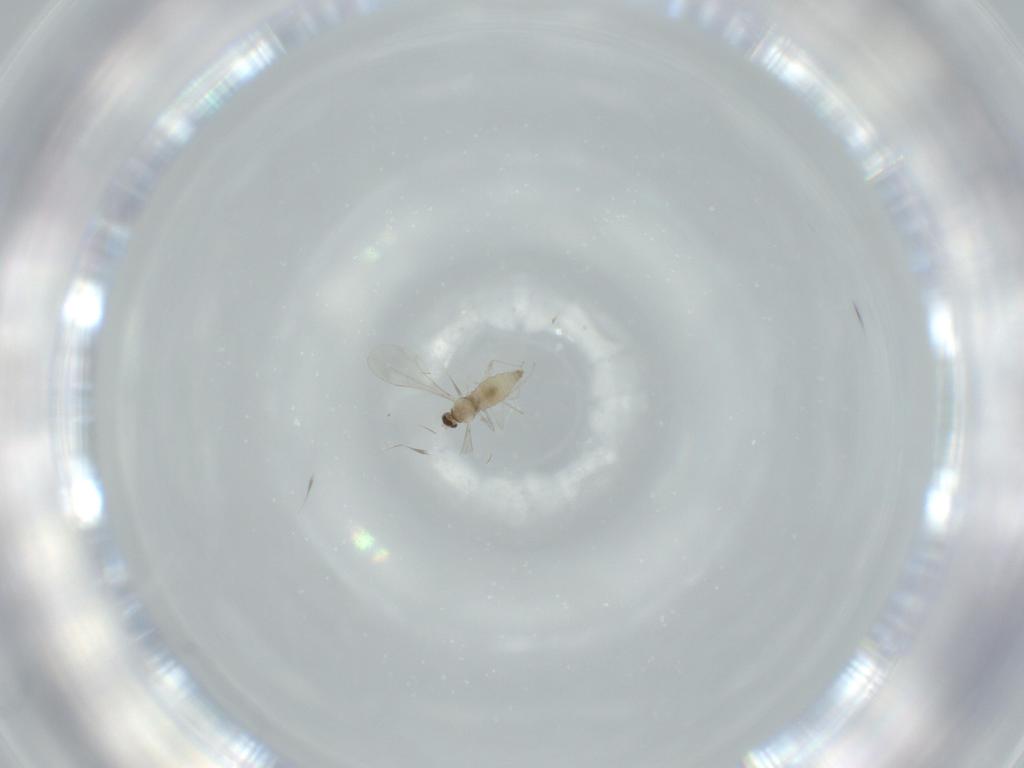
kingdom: Animalia
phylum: Arthropoda
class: Insecta
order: Diptera
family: Cecidomyiidae
